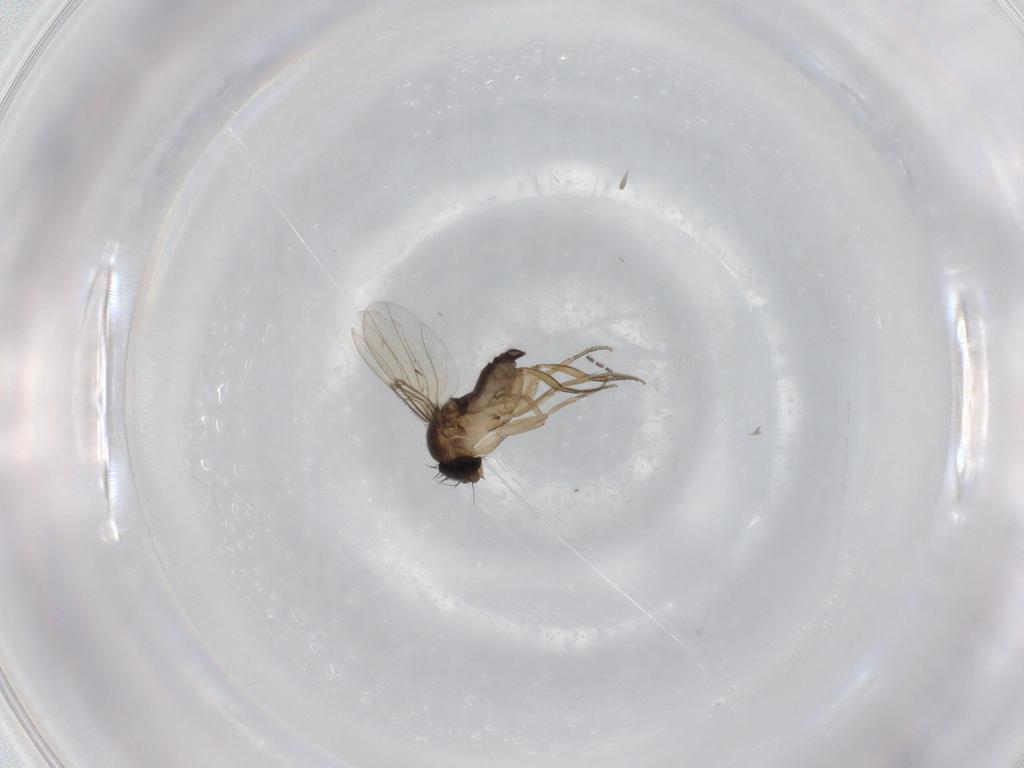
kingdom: Animalia
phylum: Arthropoda
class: Insecta
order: Diptera
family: Phoridae
